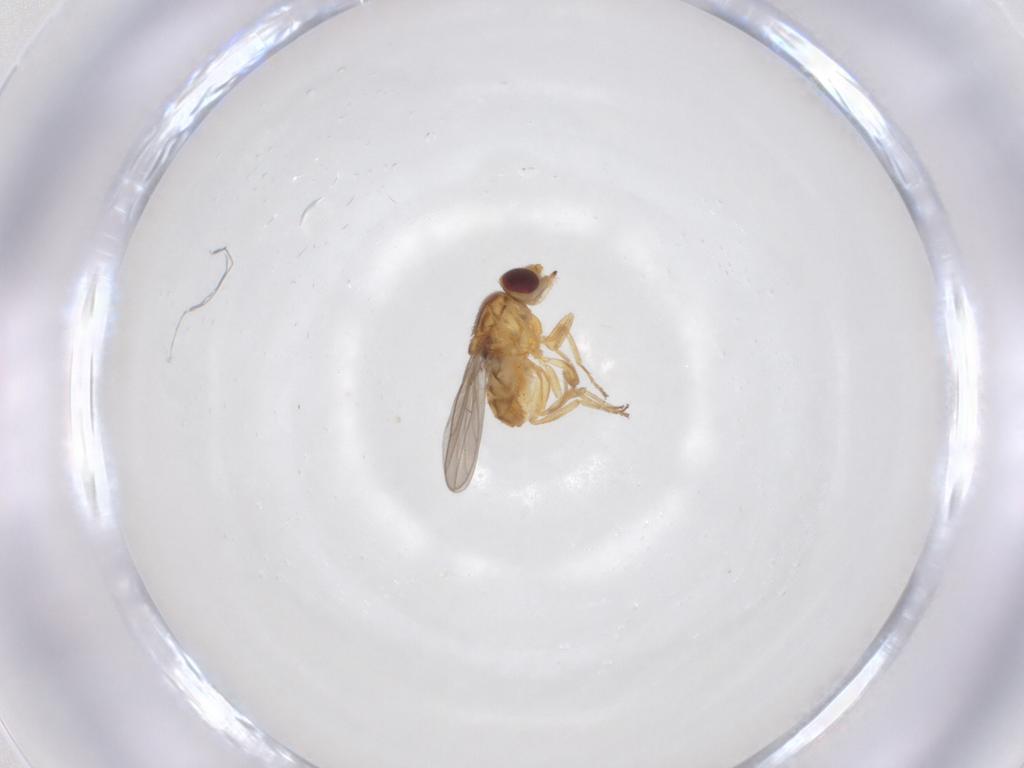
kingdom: Animalia
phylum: Arthropoda
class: Insecta
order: Diptera
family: Chloropidae
